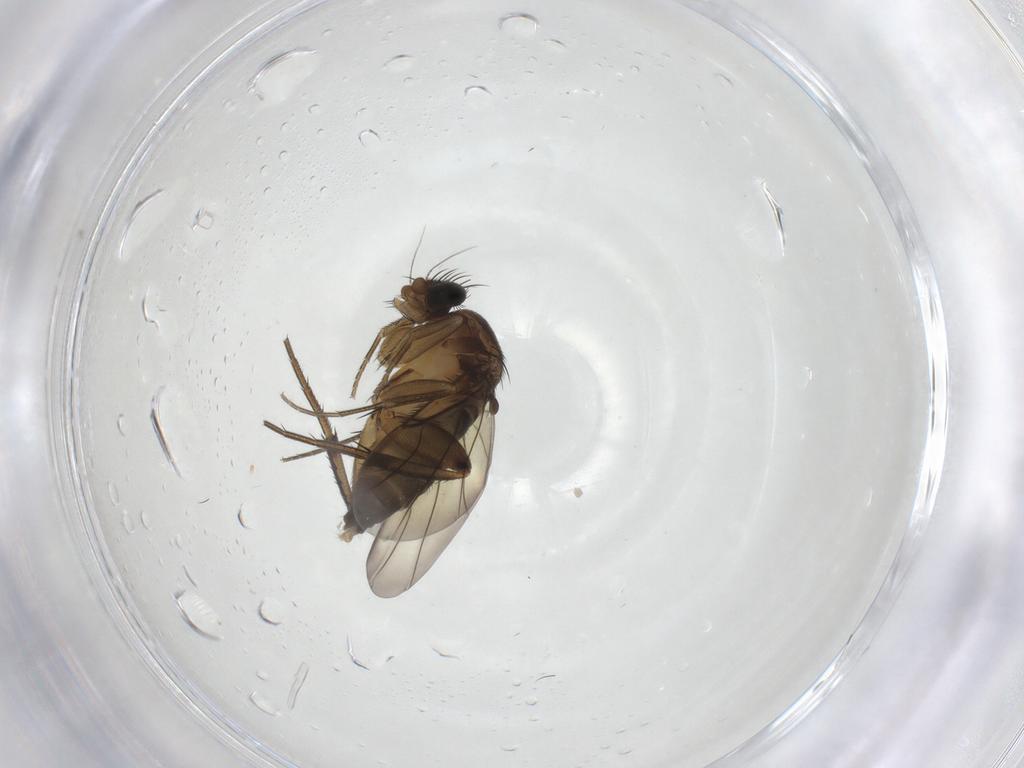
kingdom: Animalia
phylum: Arthropoda
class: Insecta
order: Diptera
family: Phoridae
